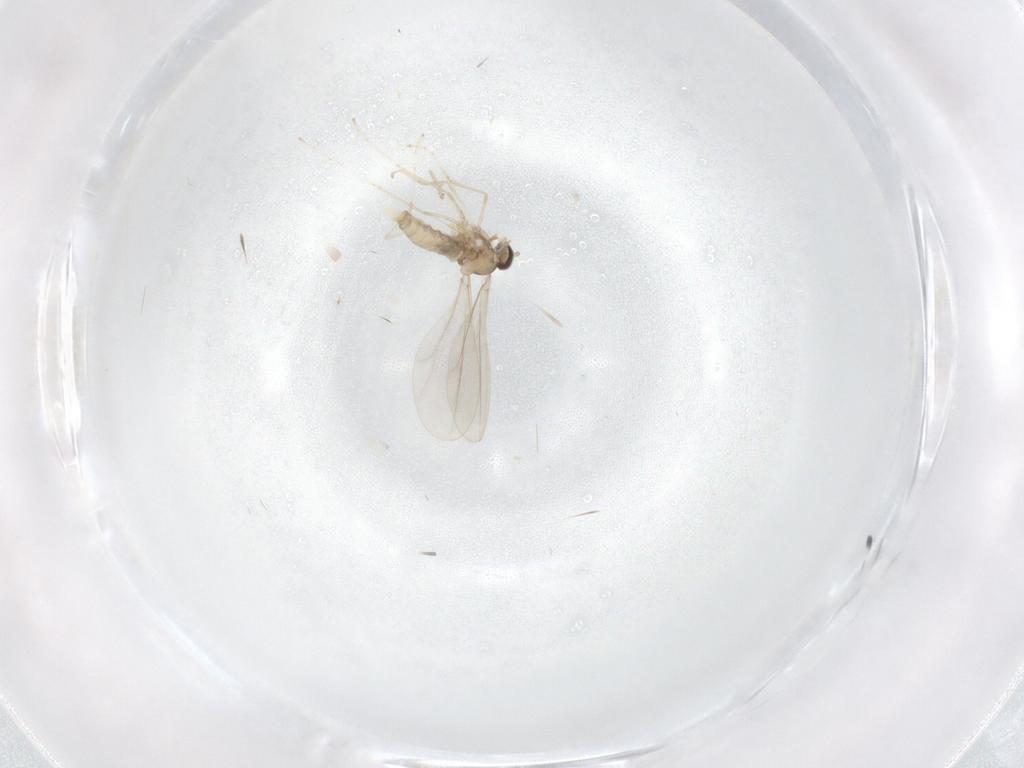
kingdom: Animalia
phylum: Arthropoda
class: Insecta
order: Diptera
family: Cecidomyiidae
